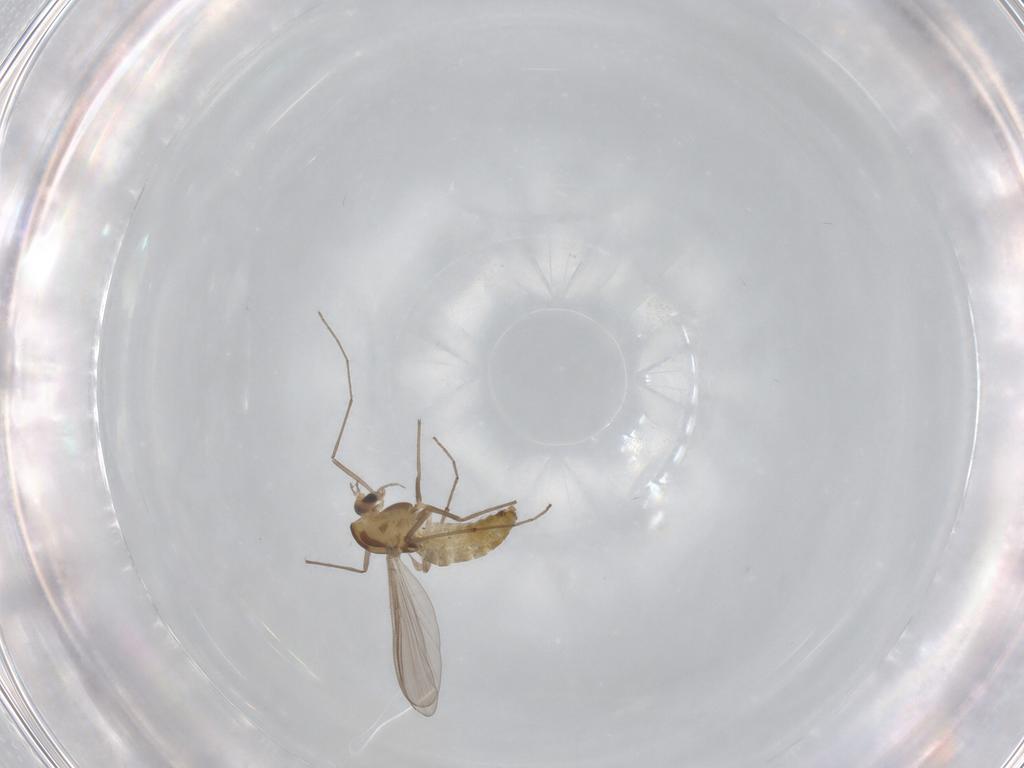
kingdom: Animalia
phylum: Arthropoda
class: Insecta
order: Diptera
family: Chironomidae
